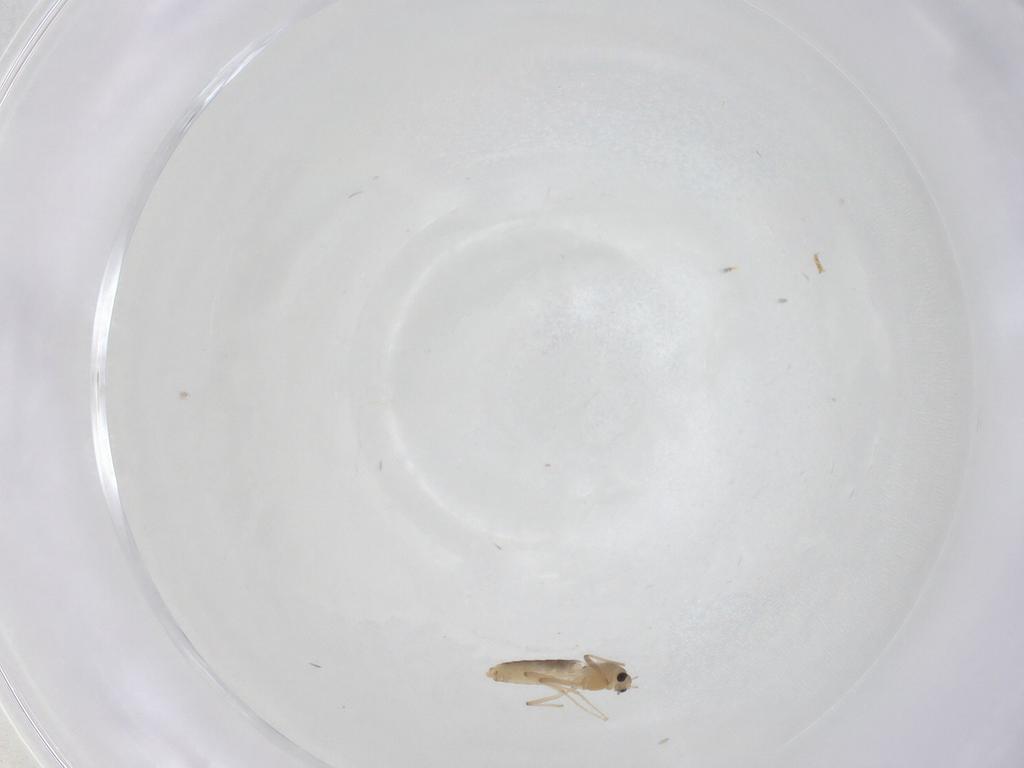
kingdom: Animalia
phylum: Arthropoda
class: Insecta
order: Diptera
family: Chironomidae
